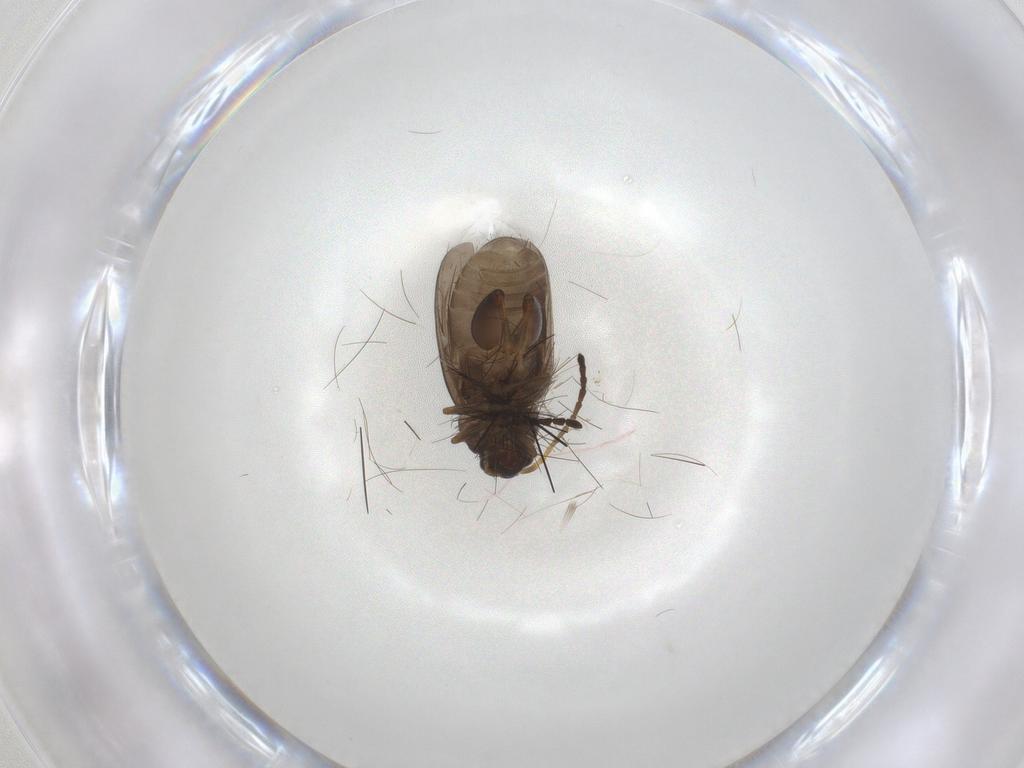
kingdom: Animalia
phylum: Arthropoda
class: Insecta
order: Coleoptera
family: Chrysomelidae
